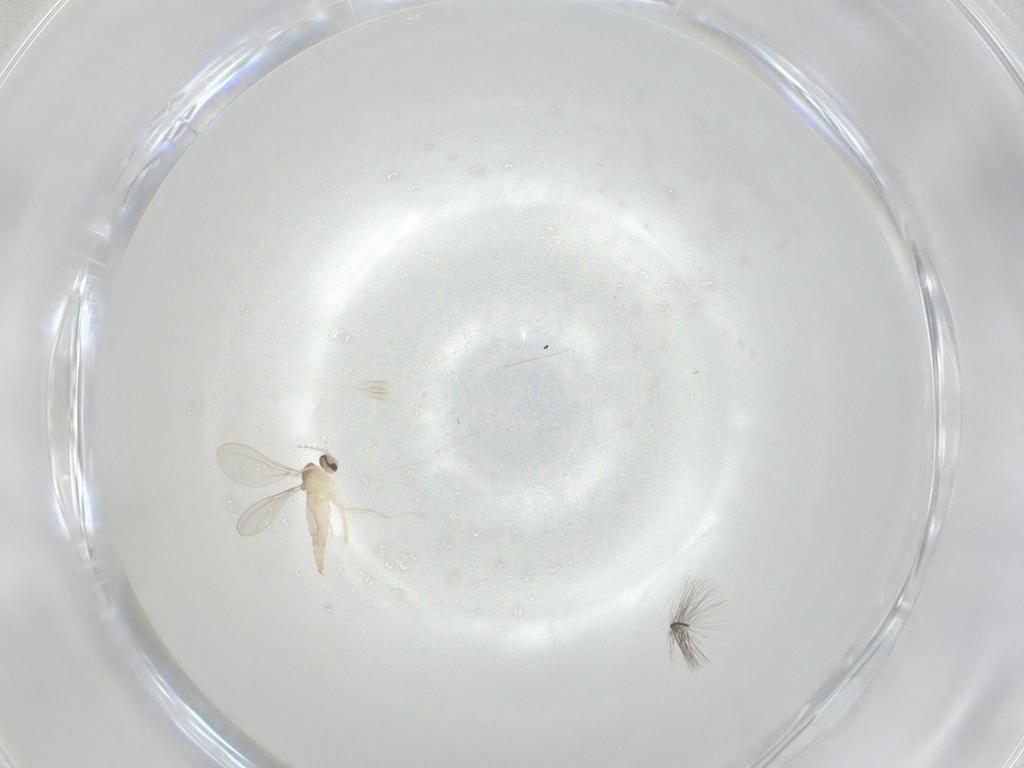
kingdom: Animalia
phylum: Arthropoda
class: Insecta
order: Diptera
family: Cecidomyiidae
